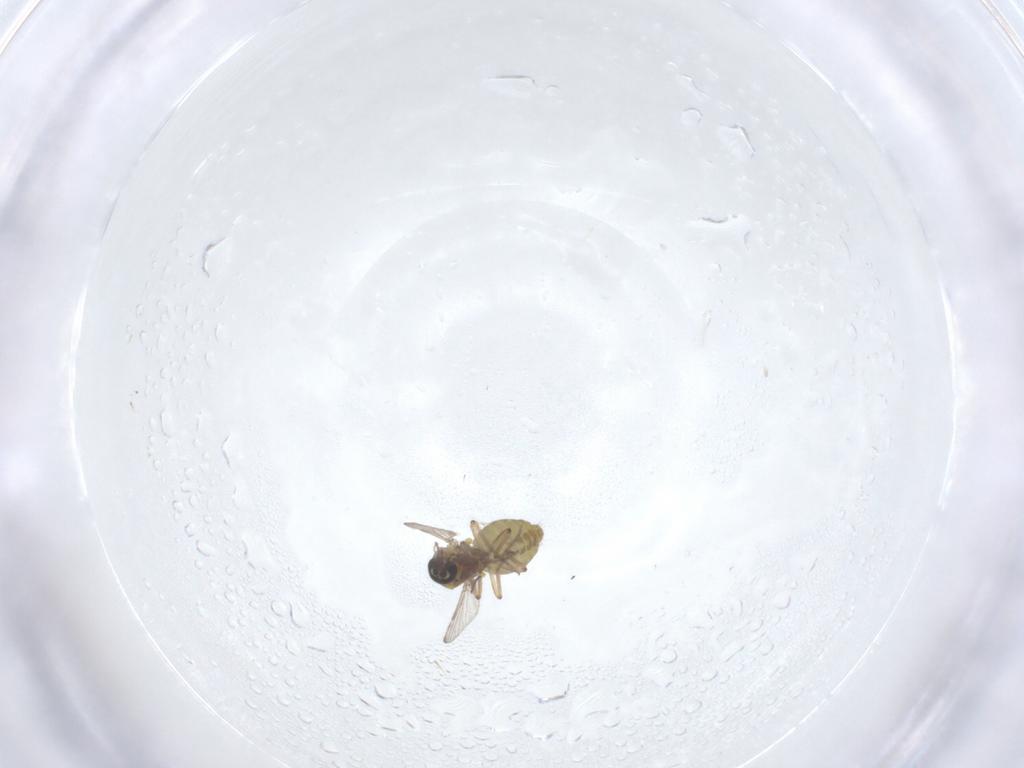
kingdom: Animalia
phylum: Arthropoda
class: Insecta
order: Diptera
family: Ceratopogonidae
